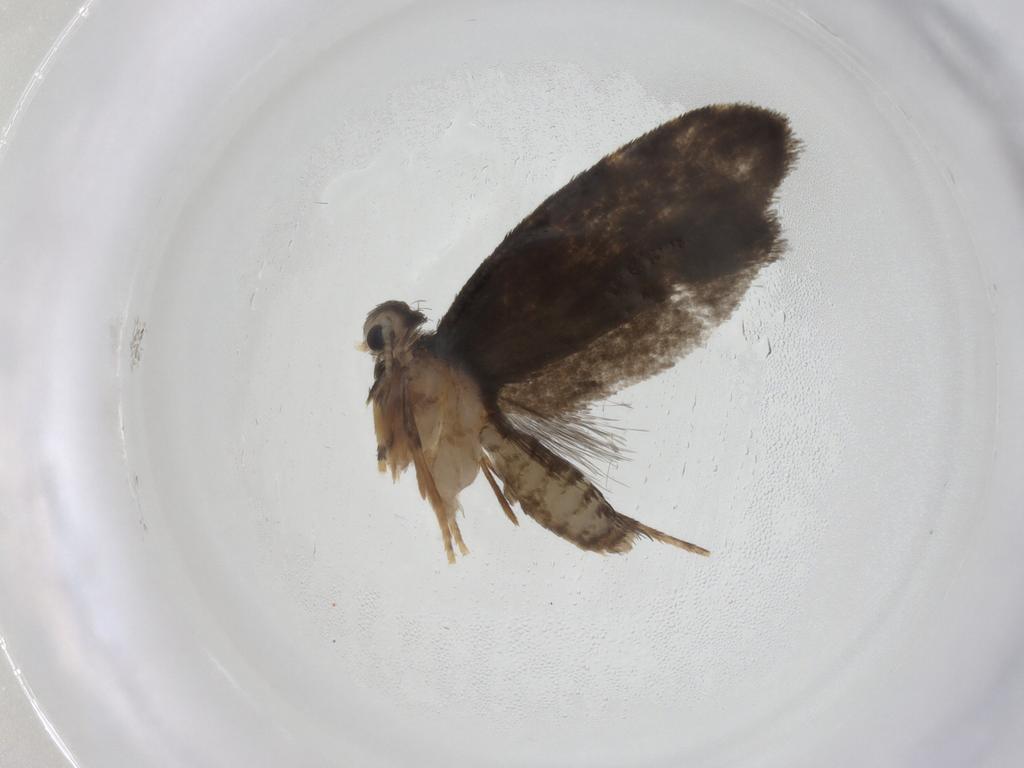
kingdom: Animalia
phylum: Arthropoda
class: Insecta
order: Lepidoptera
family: Psychidae
